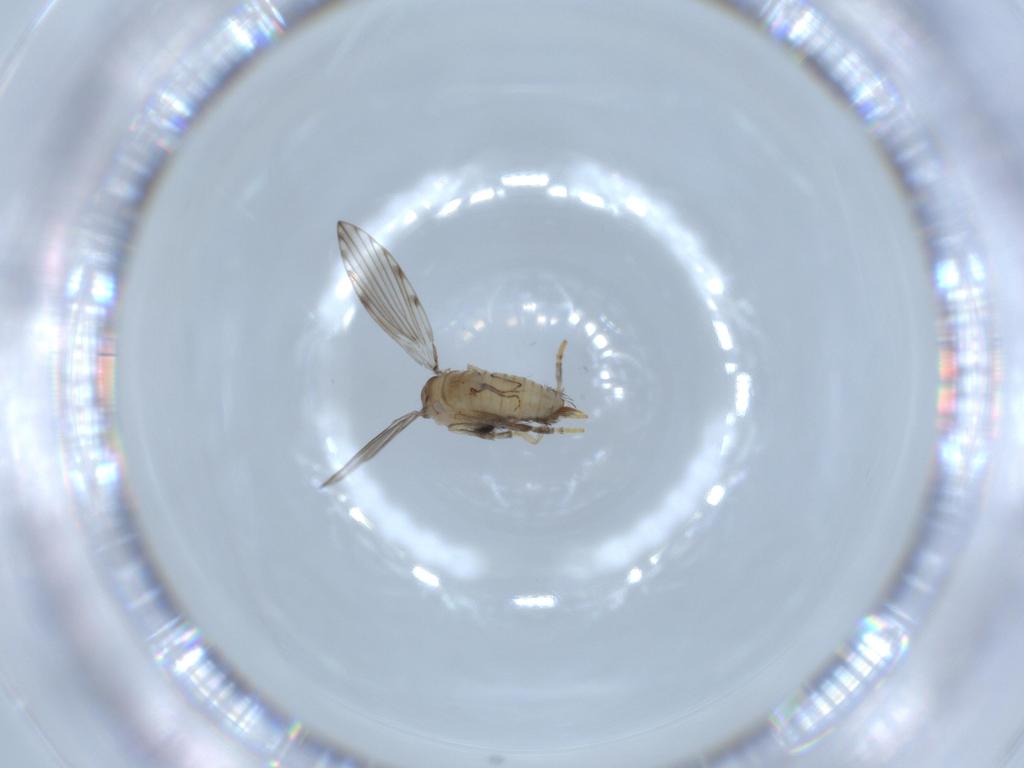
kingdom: Animalia
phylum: Arthropoda
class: Insecta
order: Diptera
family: Psychodidae
